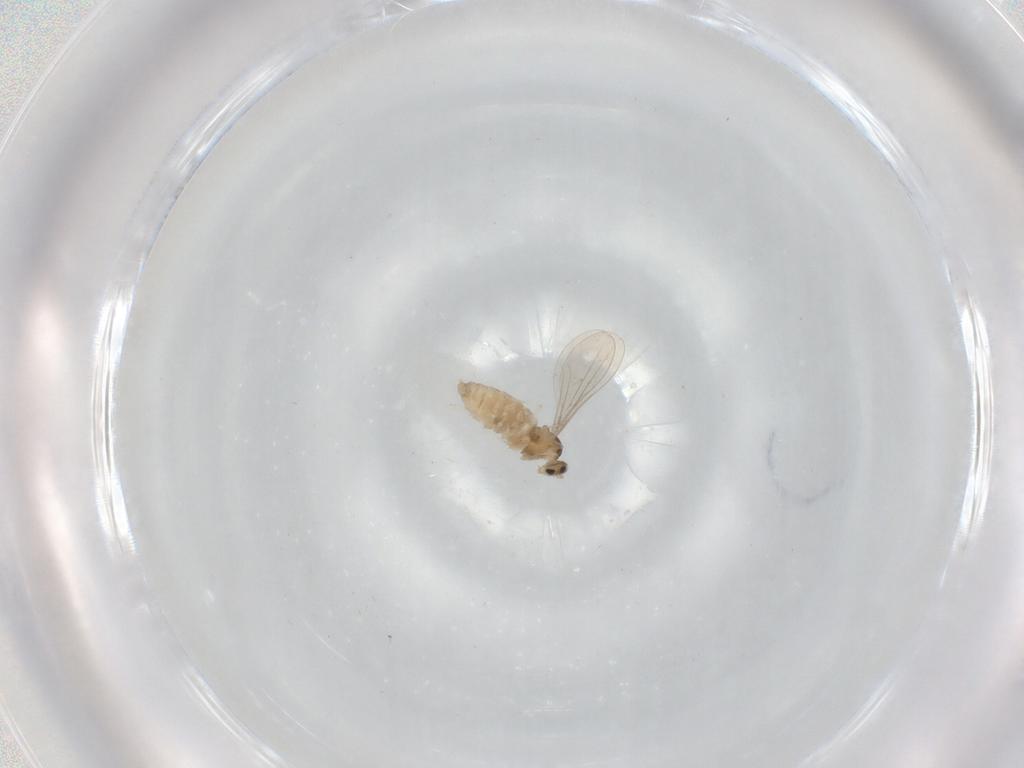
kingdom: Animalia
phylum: Arthropoda
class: Insecta
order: Diptera
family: Cecidomyiidae
